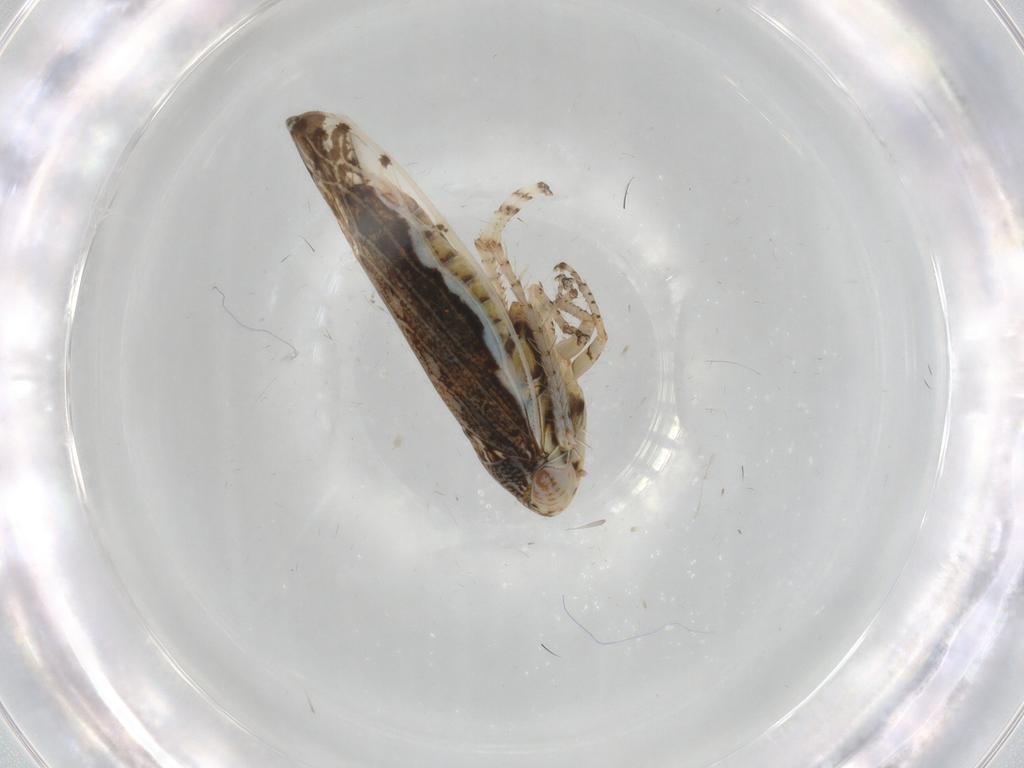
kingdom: Animalia
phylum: Arthropoda
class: Insecta
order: Hemiptera
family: Cicadellidae
